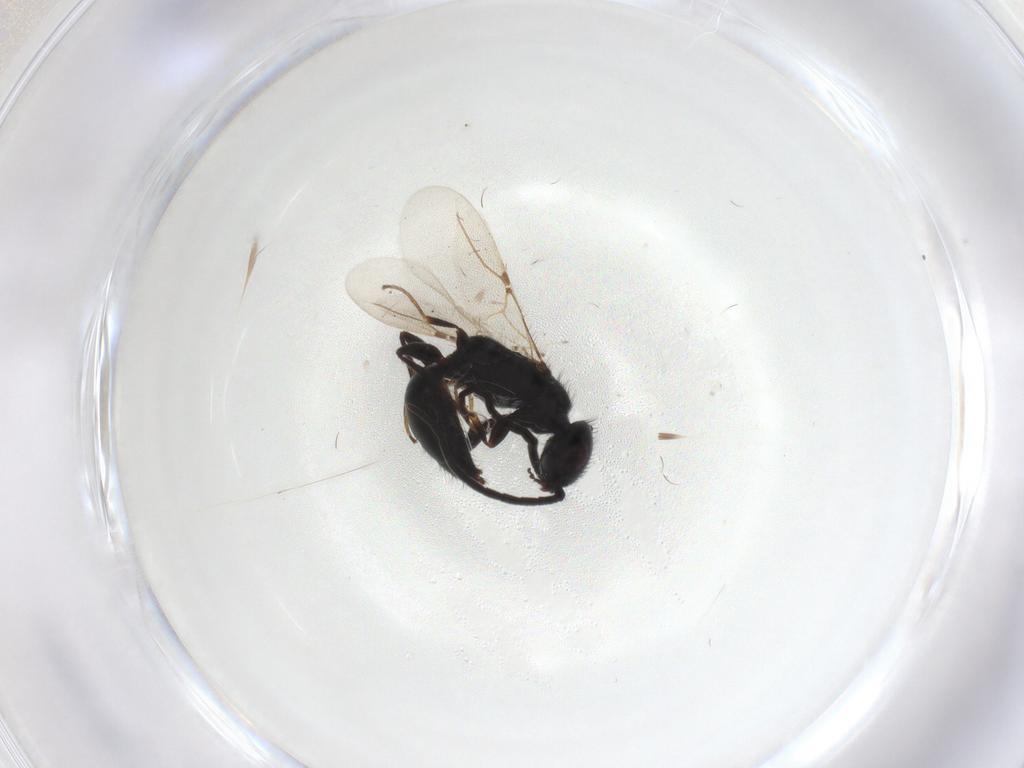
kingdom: Animalia
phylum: Arthropoda
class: Insecta
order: Hymenoptera
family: Bethylidae
